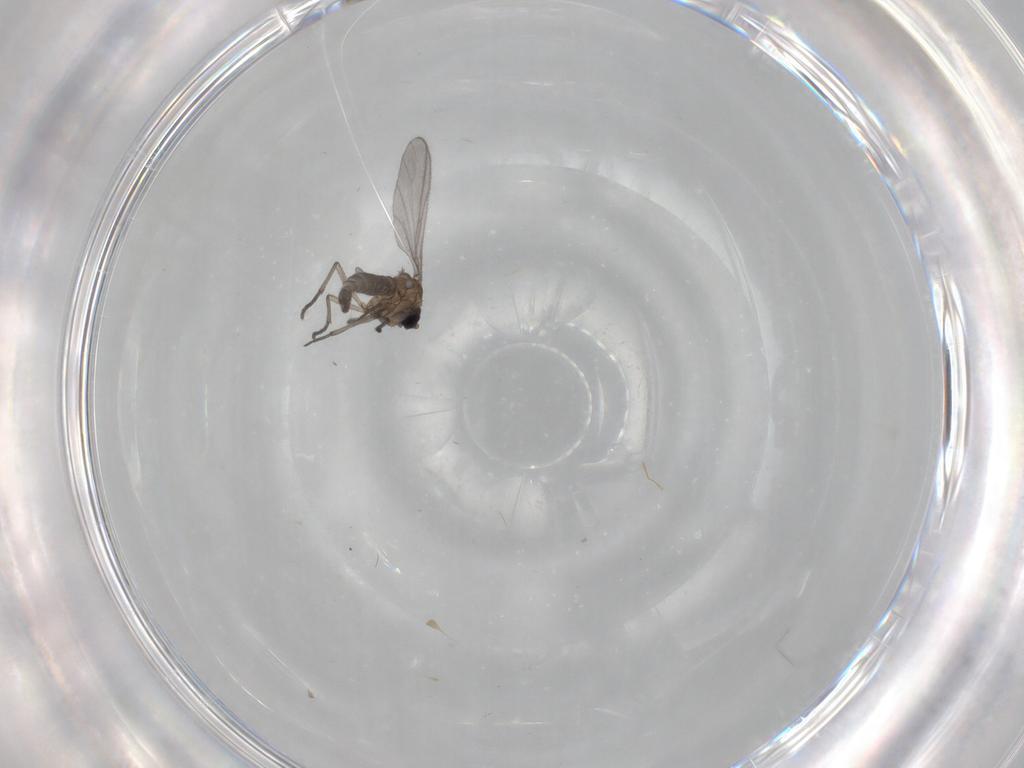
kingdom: Animalia
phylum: Arthropoda
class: Insecta
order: Diptera
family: Sciaridae
